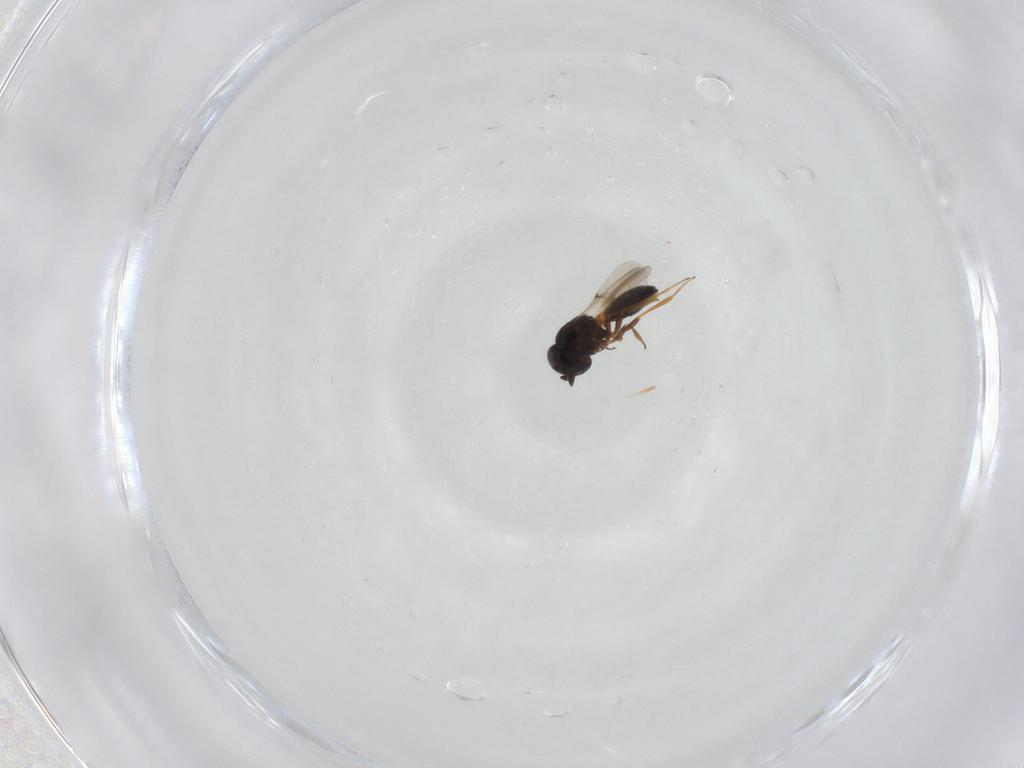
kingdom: Animalia
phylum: Arthropoda
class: Insecta
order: Hymenoptera
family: Scelionidae
